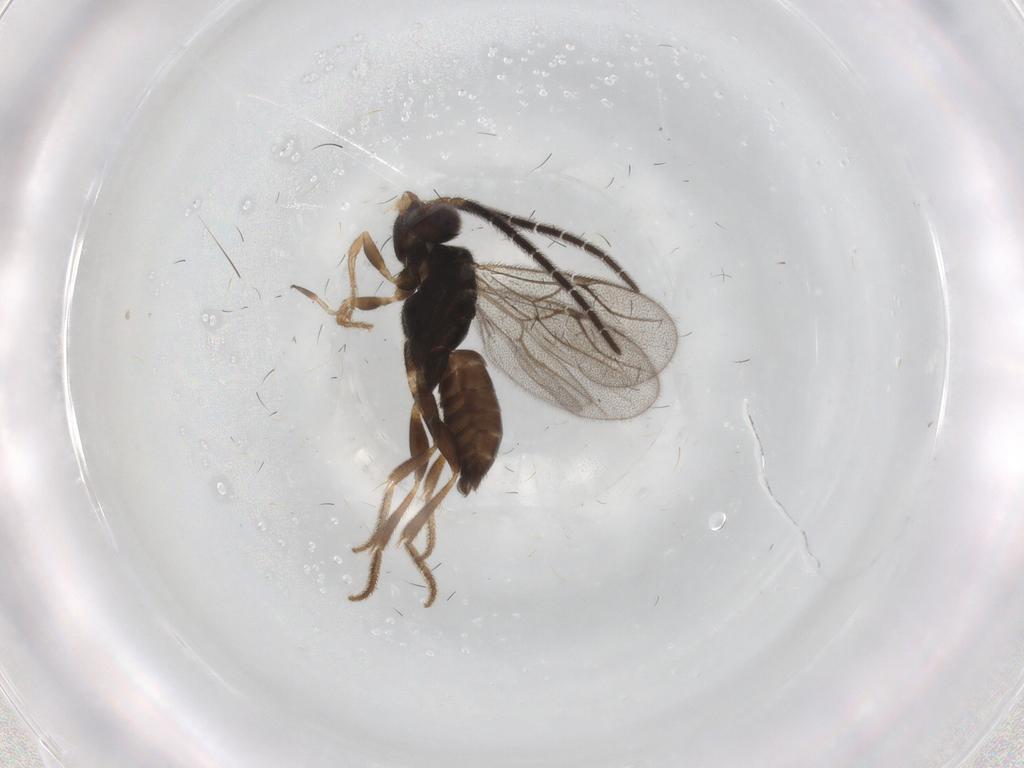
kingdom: Animalia
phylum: Arthropoda
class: Insecta
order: Hymenoptera
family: Dryinidae
